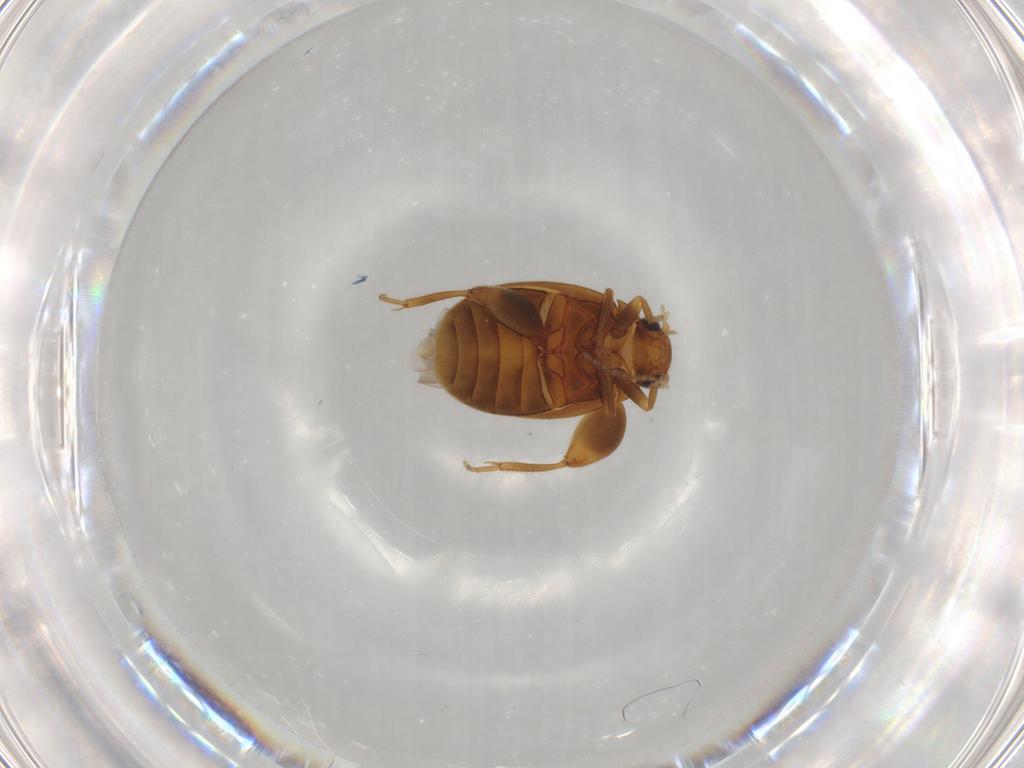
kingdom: Animalia
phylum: Arthropoda
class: Insecta
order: Coleoptera
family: Scirtidae
